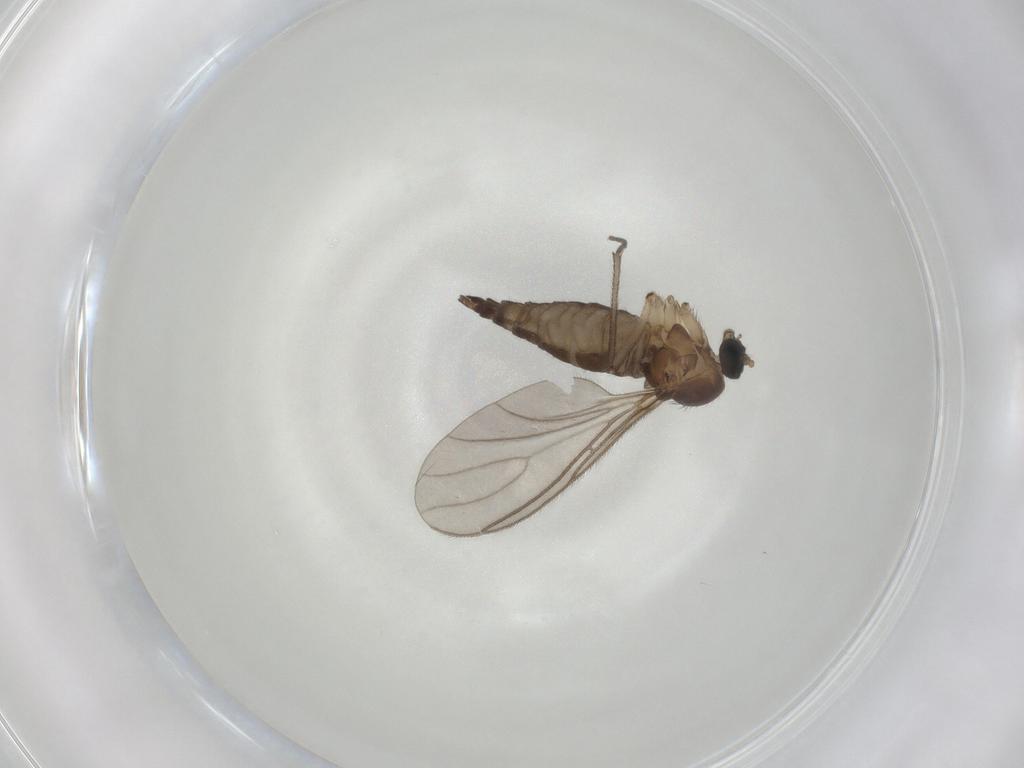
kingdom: Animalia
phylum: Arthropoda
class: Insecta
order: Diptera
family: Sciaridae
